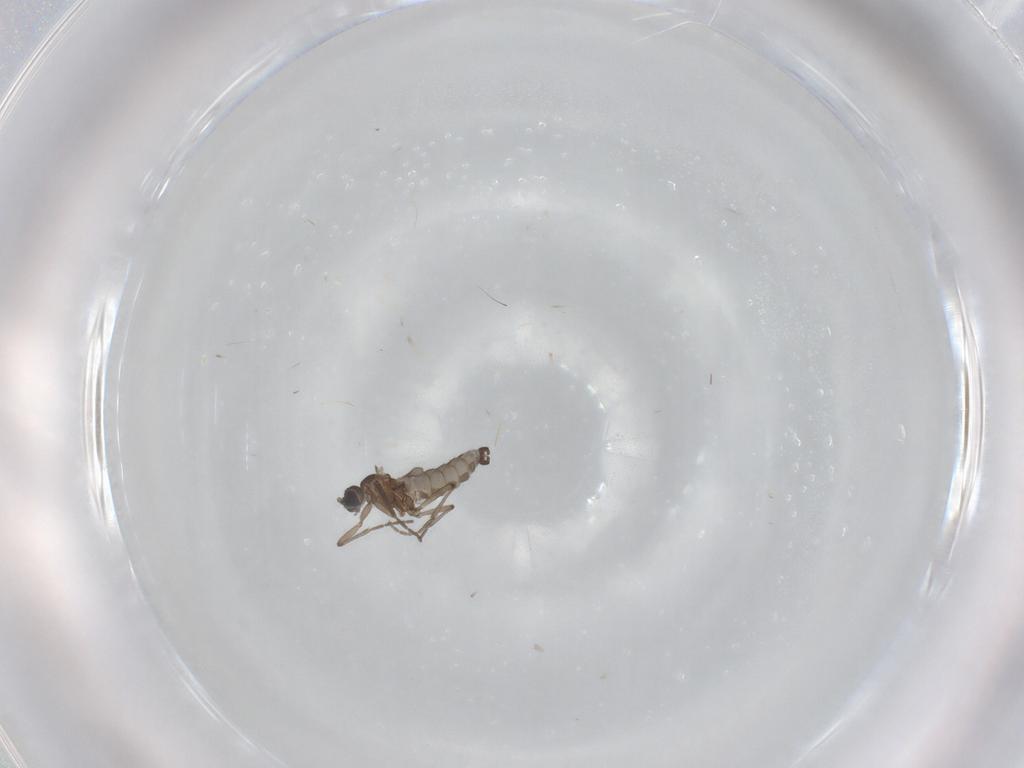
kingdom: Animalia
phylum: Arthropoda
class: Insecta
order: Diptera
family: Sciaridae
